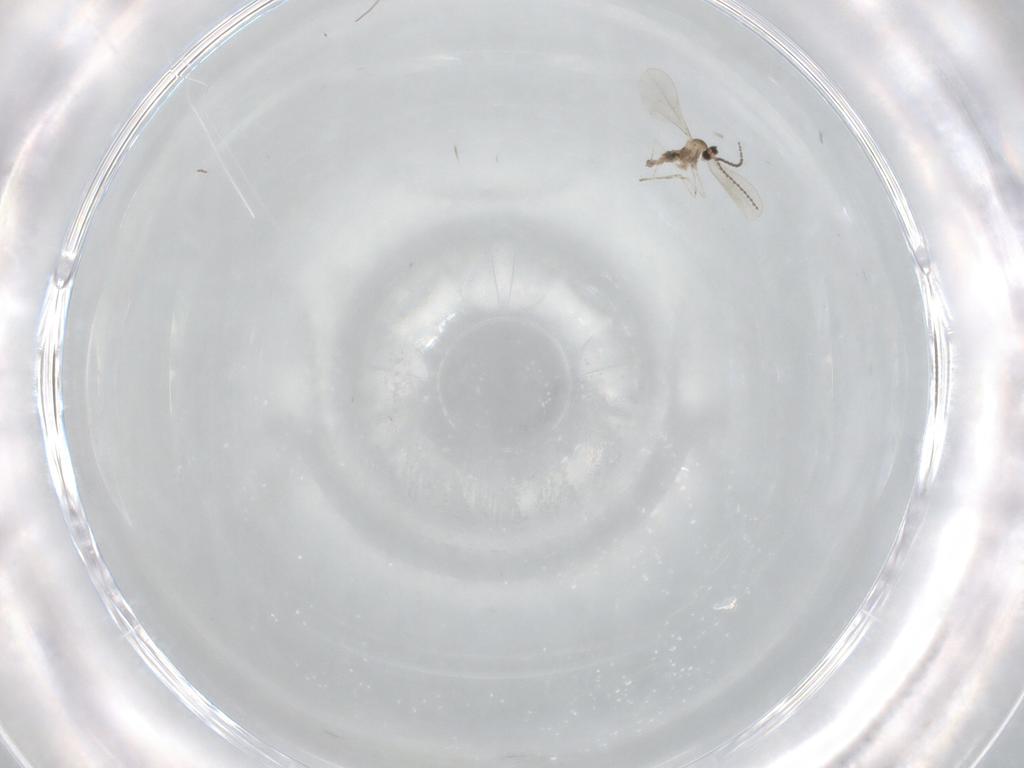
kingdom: Animalia
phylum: Arthropoda
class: Insecta
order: Diptera
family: Cecidomyiidae
